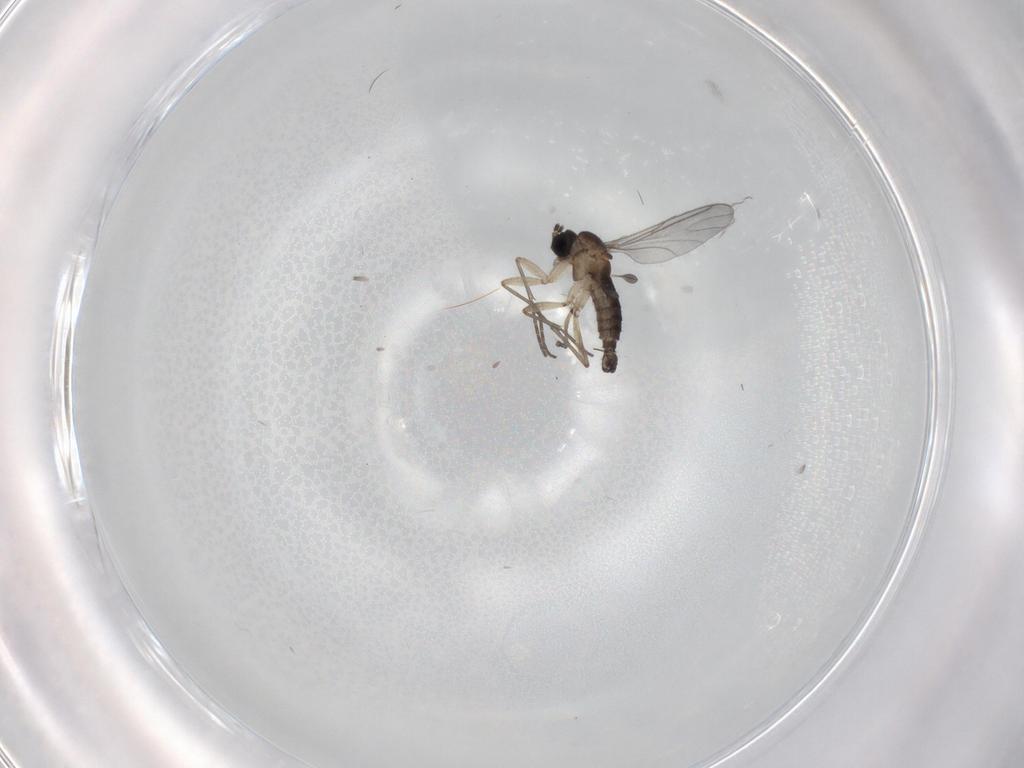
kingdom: Animalia
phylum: Arthropoda
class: Insecta
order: Diptera
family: Sciaridae
